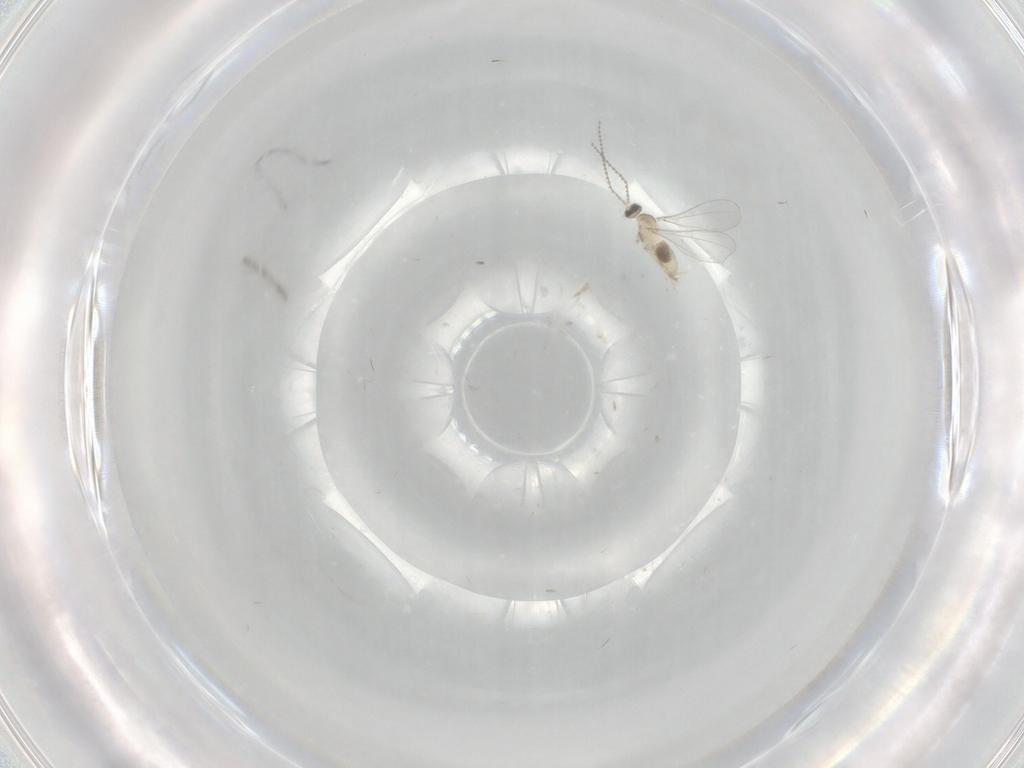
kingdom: Animalia
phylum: Arthropoda
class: Insecta
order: Diptera
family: Cecidomyiidae
